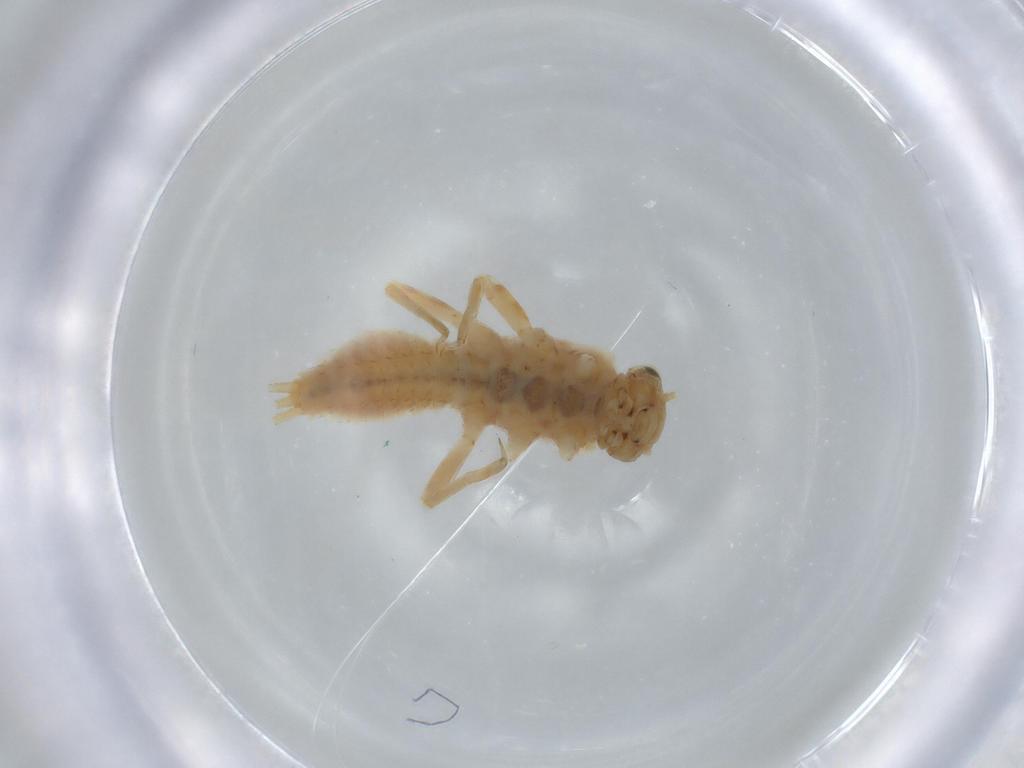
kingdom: Animalia
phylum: Arthropoda
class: Insecta
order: Ephemeroptera
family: Ephemerellidae
